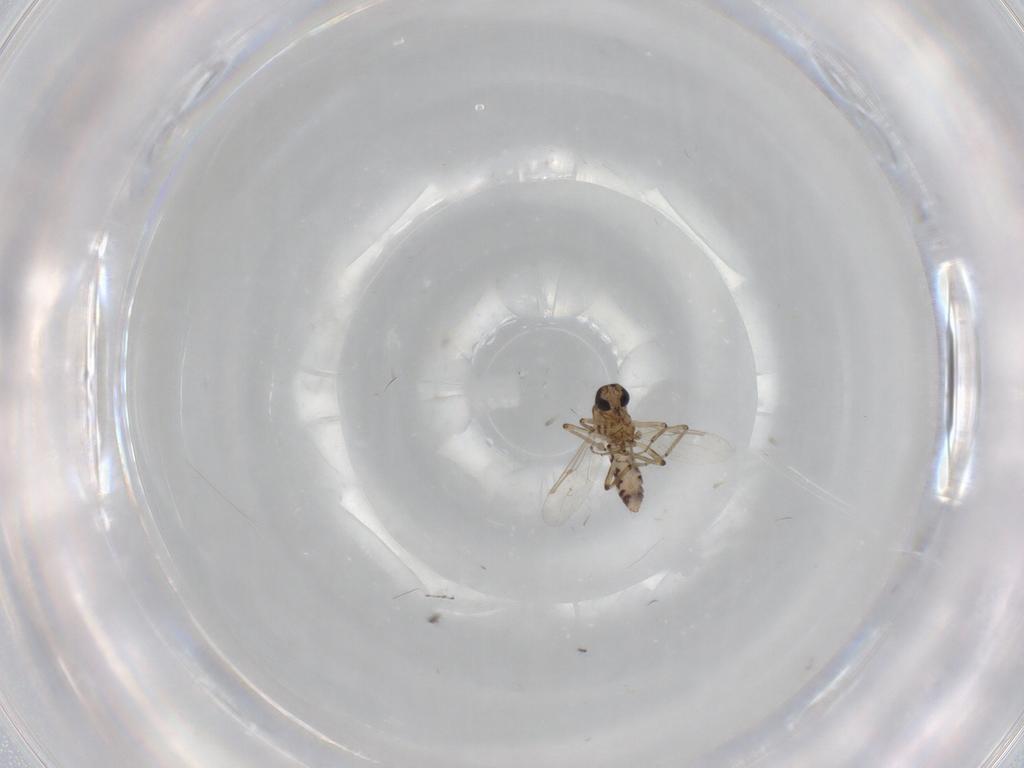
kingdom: Animalia
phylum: Arthropoda
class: Insecta
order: Diptera
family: Ceratopogonidae
